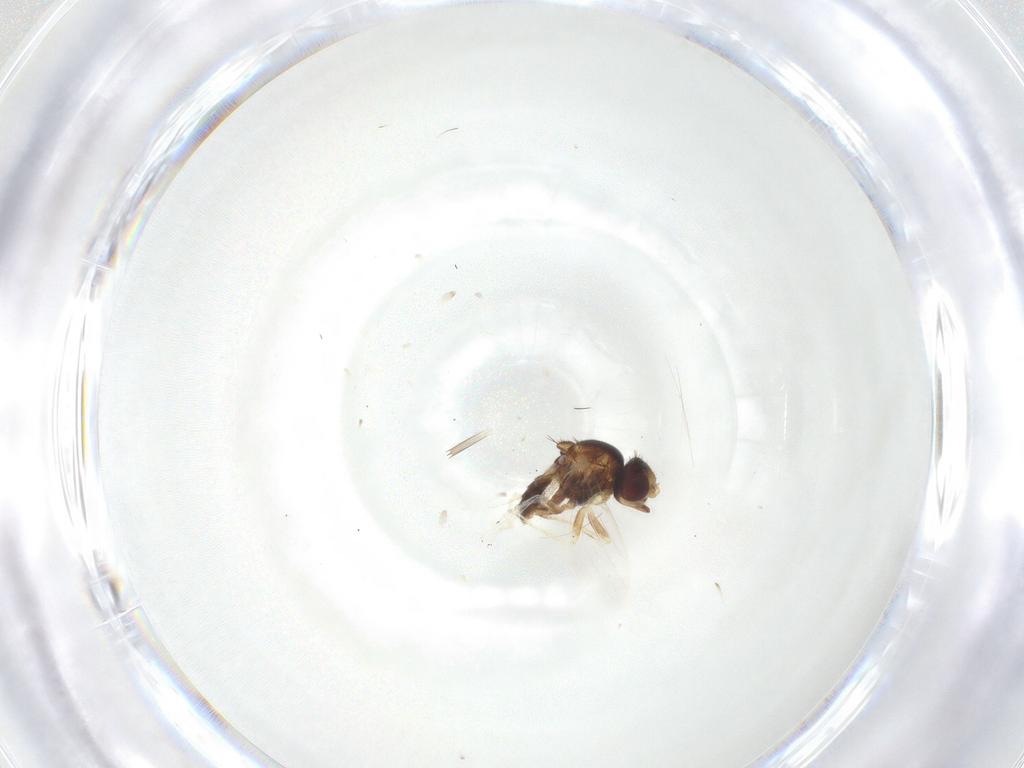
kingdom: Animalia
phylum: Arthropoda
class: Insecta
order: Diptera
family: Chloropidae
